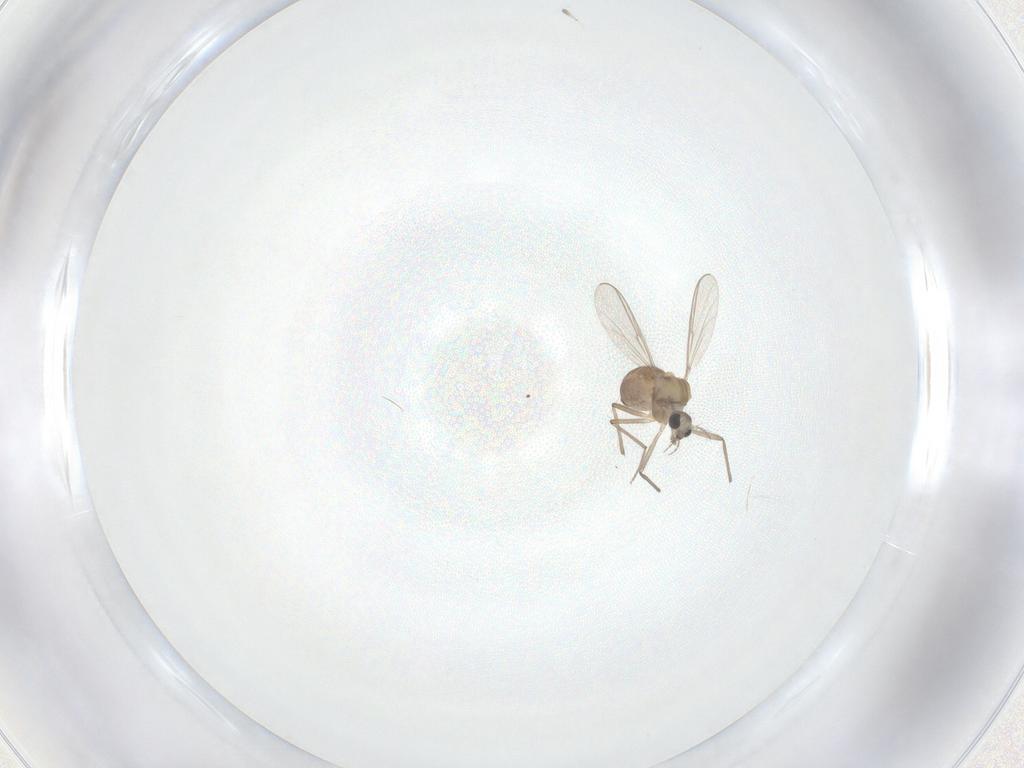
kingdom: Animalia
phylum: Arthropoda
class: Insecta
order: Diptera
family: Chironomidae
